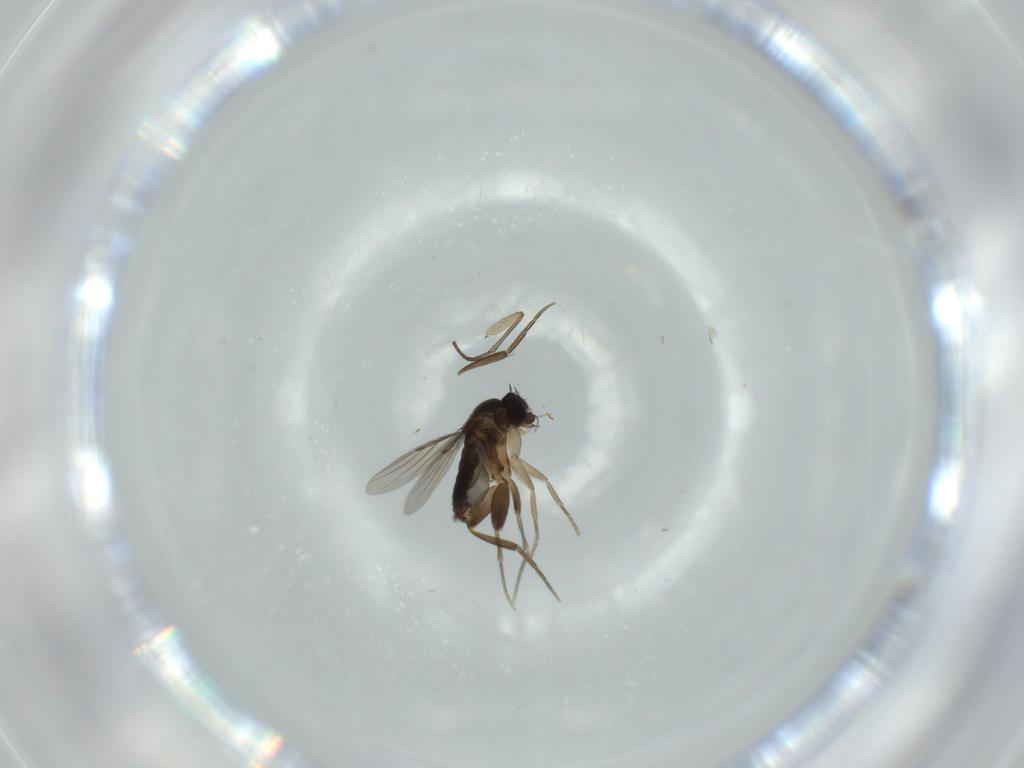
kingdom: Animalia
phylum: Arthropoda
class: Insecta
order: Diptera
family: Phoridae
